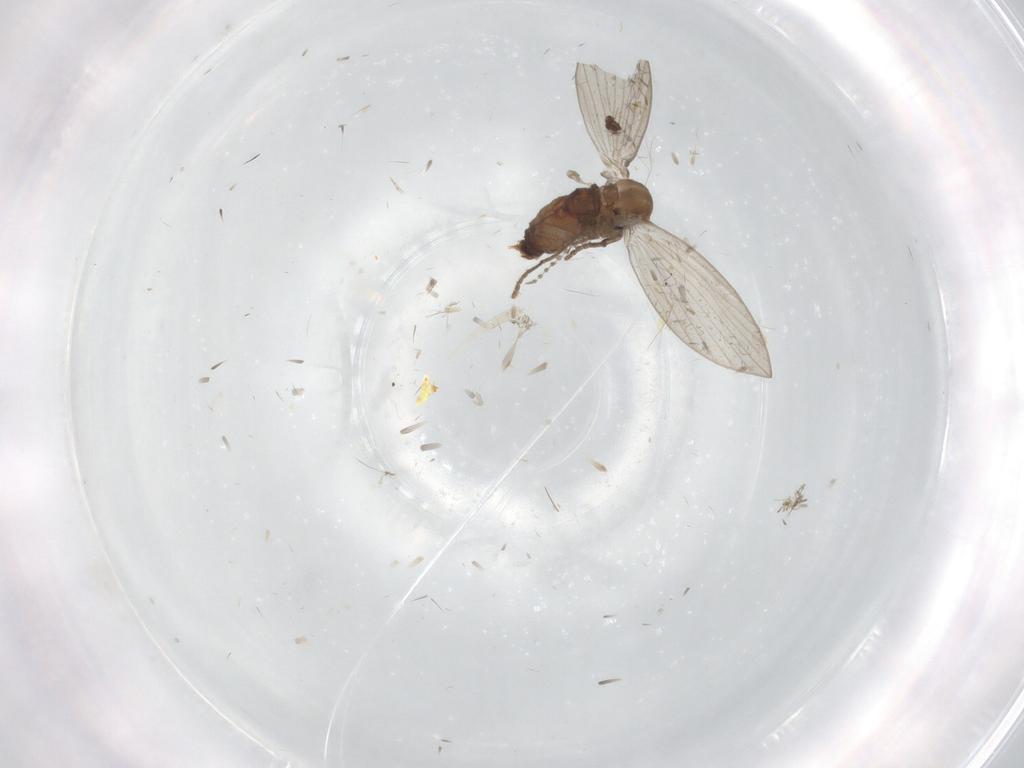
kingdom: Animalia
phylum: Arthropoda
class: Insecta
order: Diptera
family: Psychodidae
